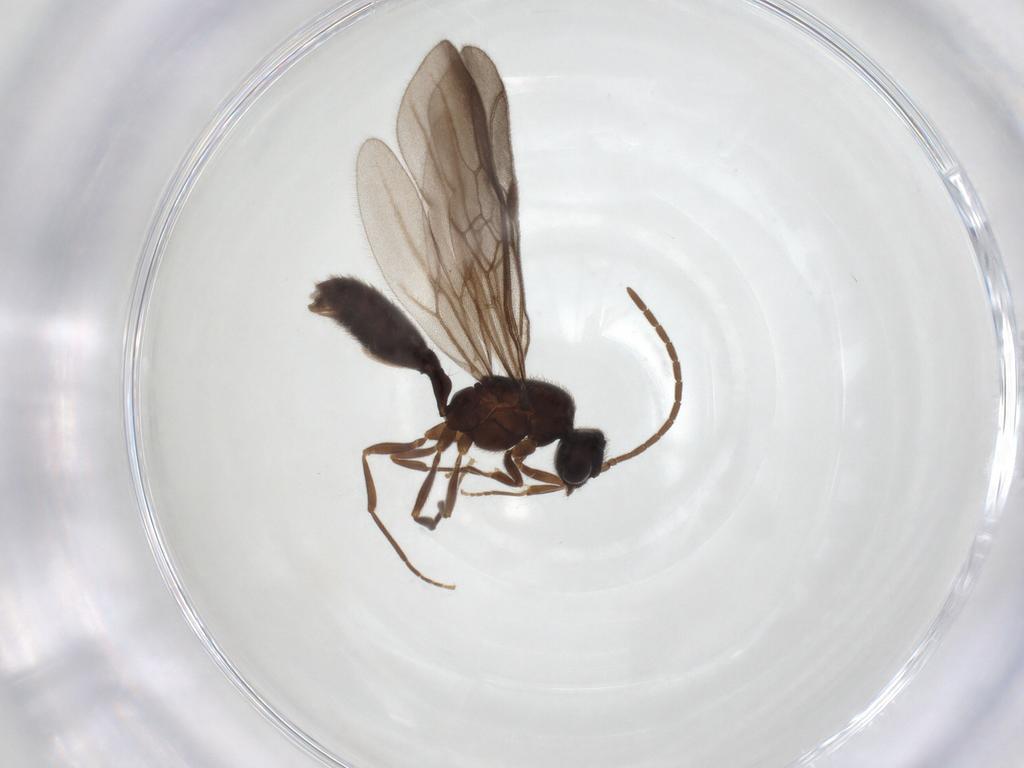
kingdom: Animalia
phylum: Arthropoda
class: Insecta
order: Hymenoptera
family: Formicidae
